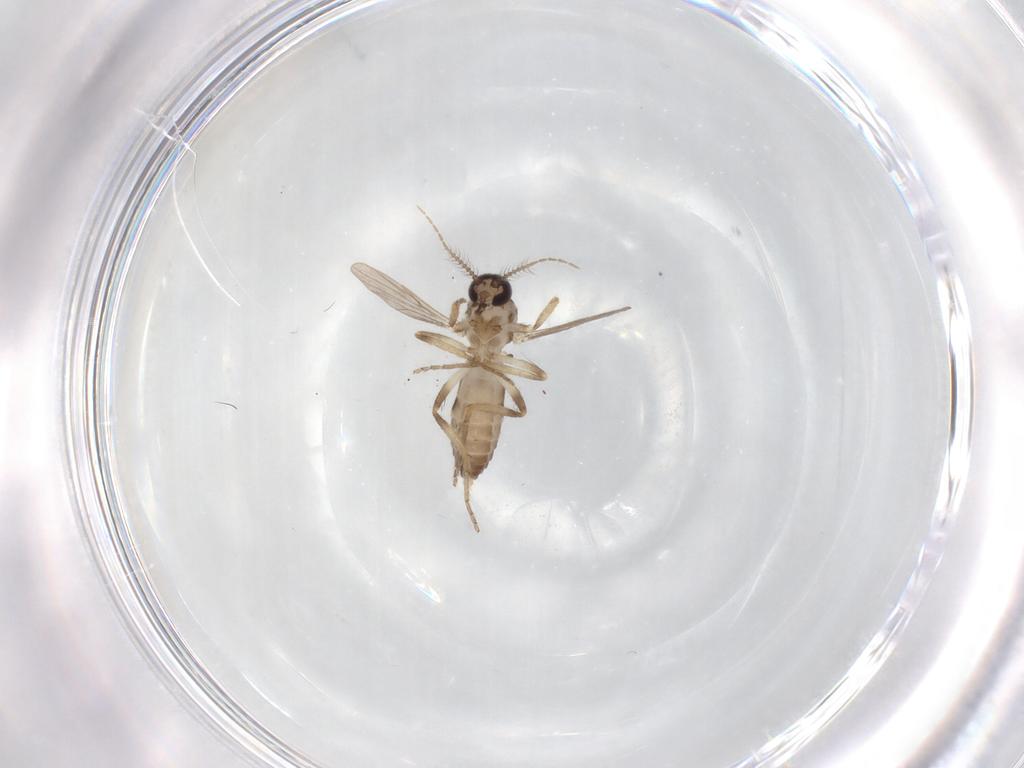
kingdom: Animalia
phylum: Arthropoda
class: Insecta
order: Diptera
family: Ceratopogonidae
